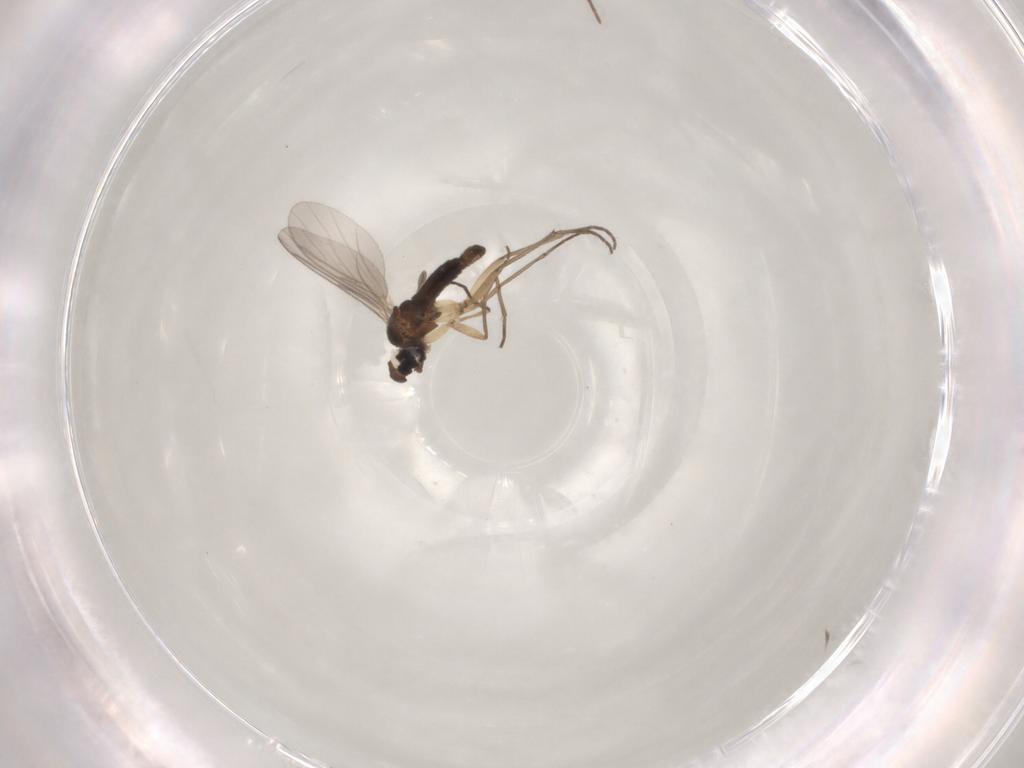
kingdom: Animalia
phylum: Arthropoda
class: Insecta
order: Diptera
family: Sciaridae
